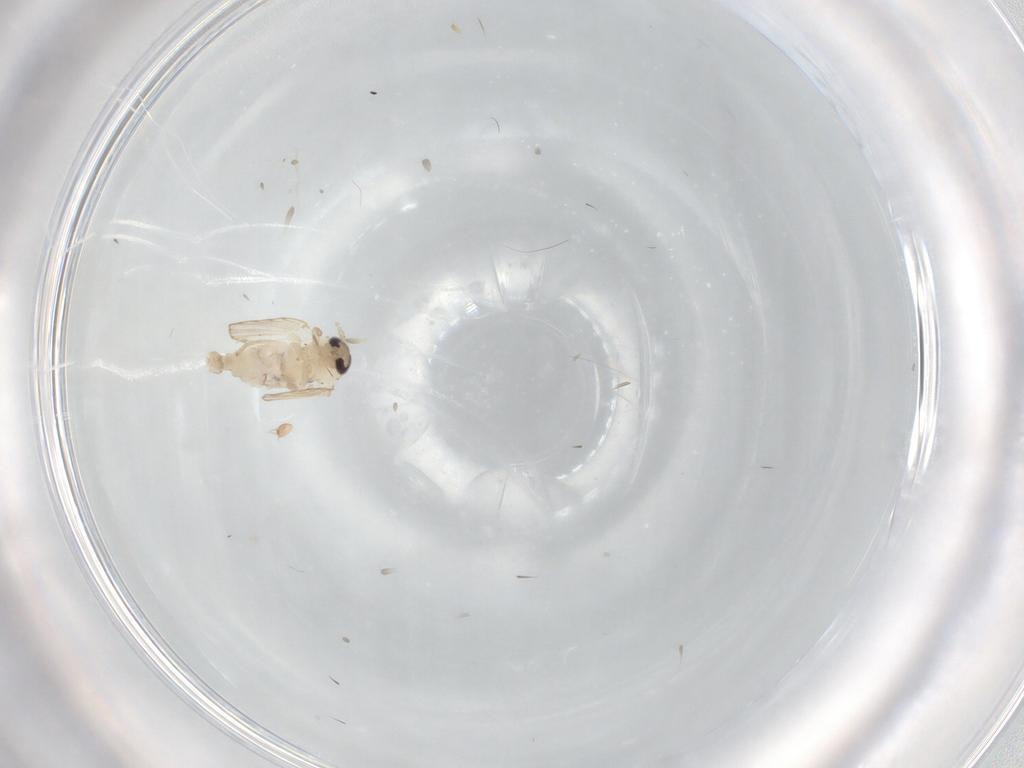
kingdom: Animalia
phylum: Arthropoda
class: Insecta
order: Diptera
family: Psychodidae
